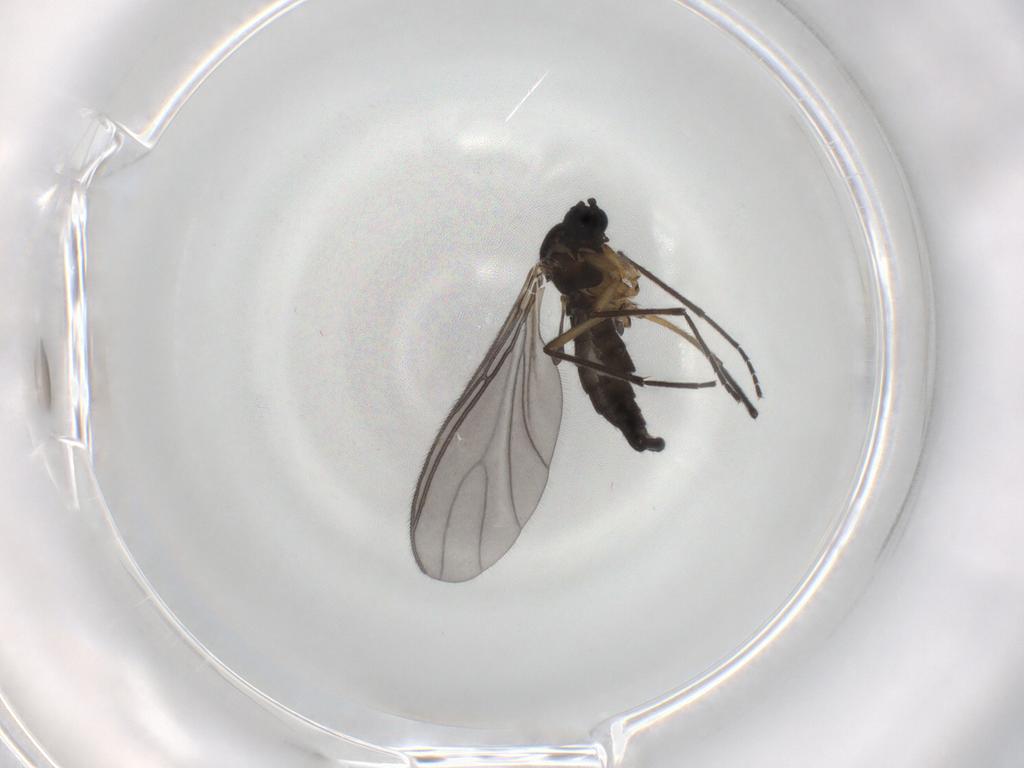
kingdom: Animalia
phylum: Arthropoda
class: Insecta
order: Diptera
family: Sciaridae
